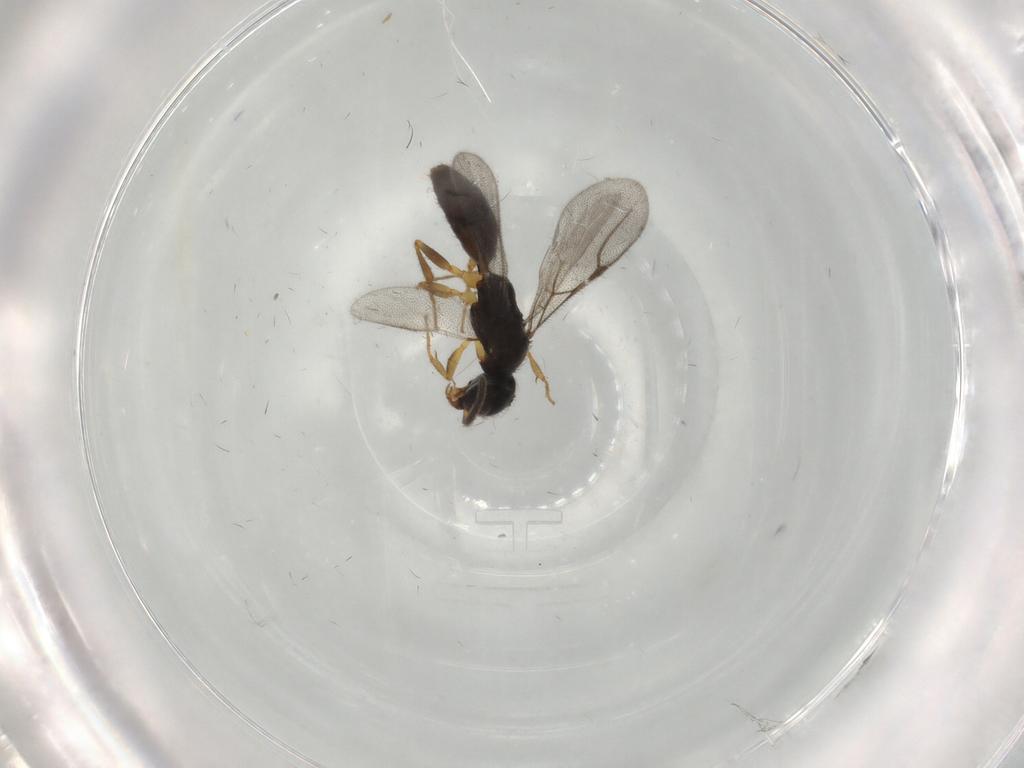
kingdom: Animalia
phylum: Arthropoda
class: Insecta
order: Hymenoptera
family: Bethylidae
